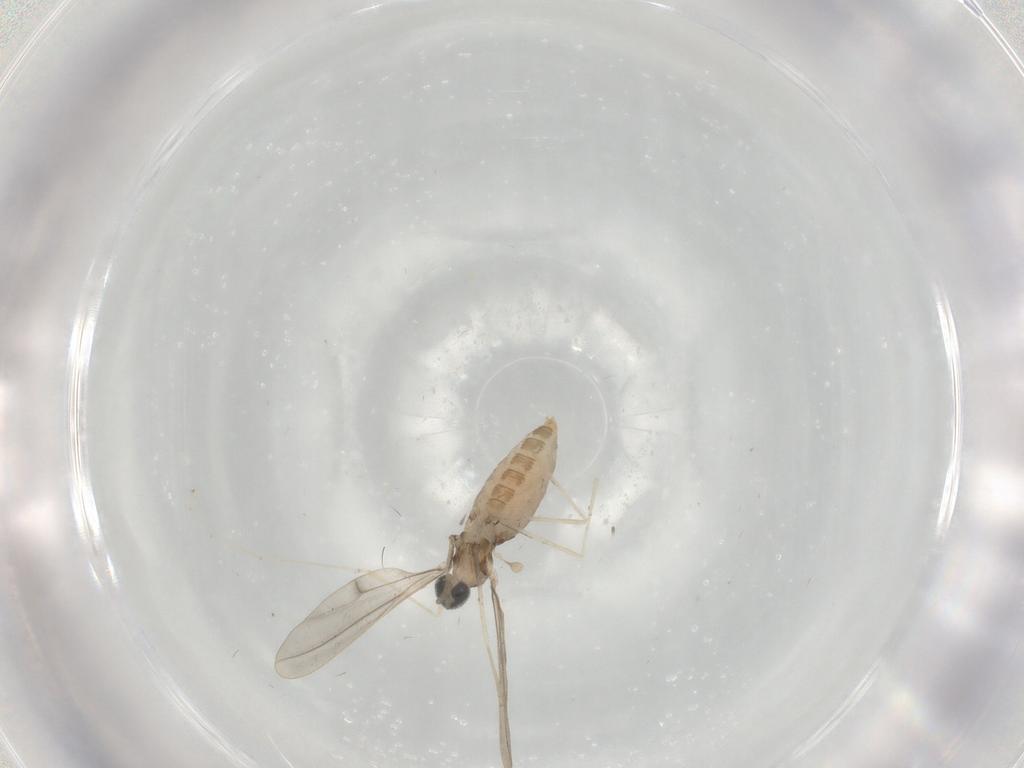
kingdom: Animalia
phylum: Arthropoda
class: Insecta
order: Diptera
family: Cecidomyiidae
